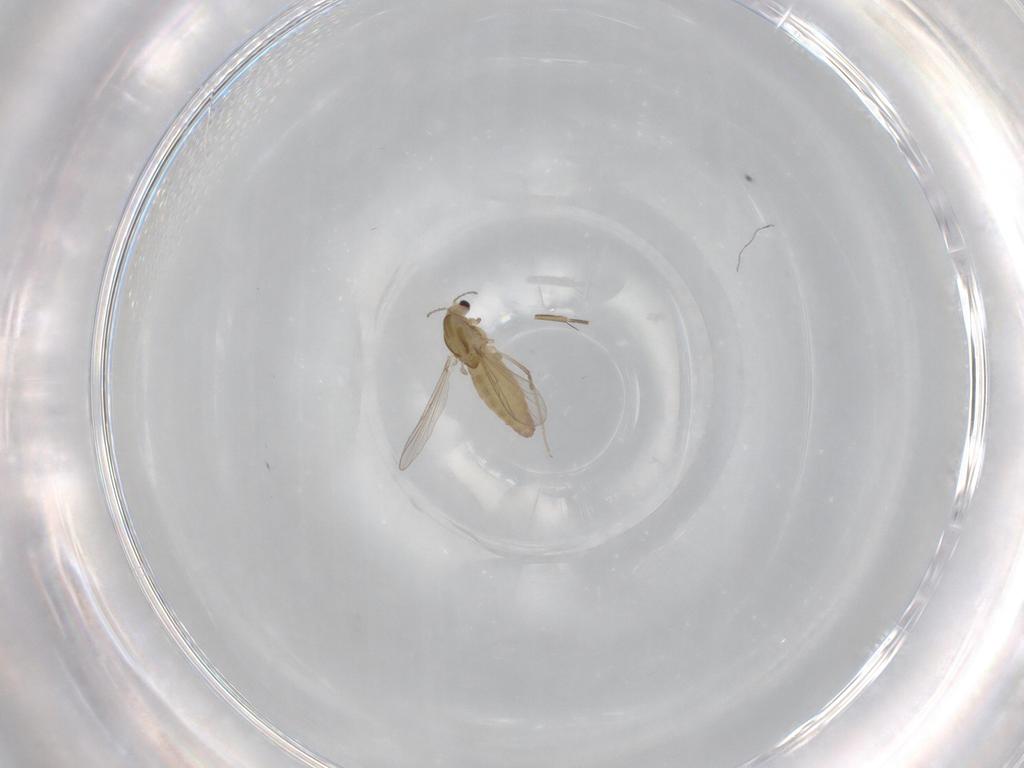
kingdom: Animalia
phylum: Arthropoda
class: Insecta
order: Diptera
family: Chironomidae
